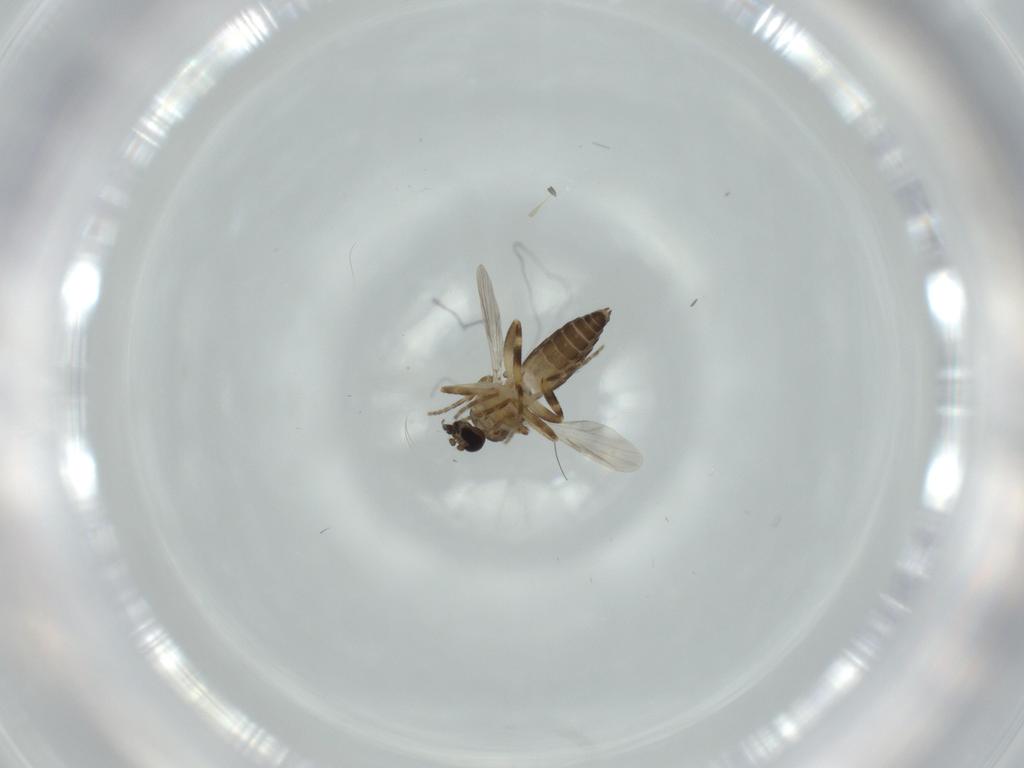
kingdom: Animalia
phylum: Arthropoda
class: Insecta
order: Diptera
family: Ceratopogonidae
